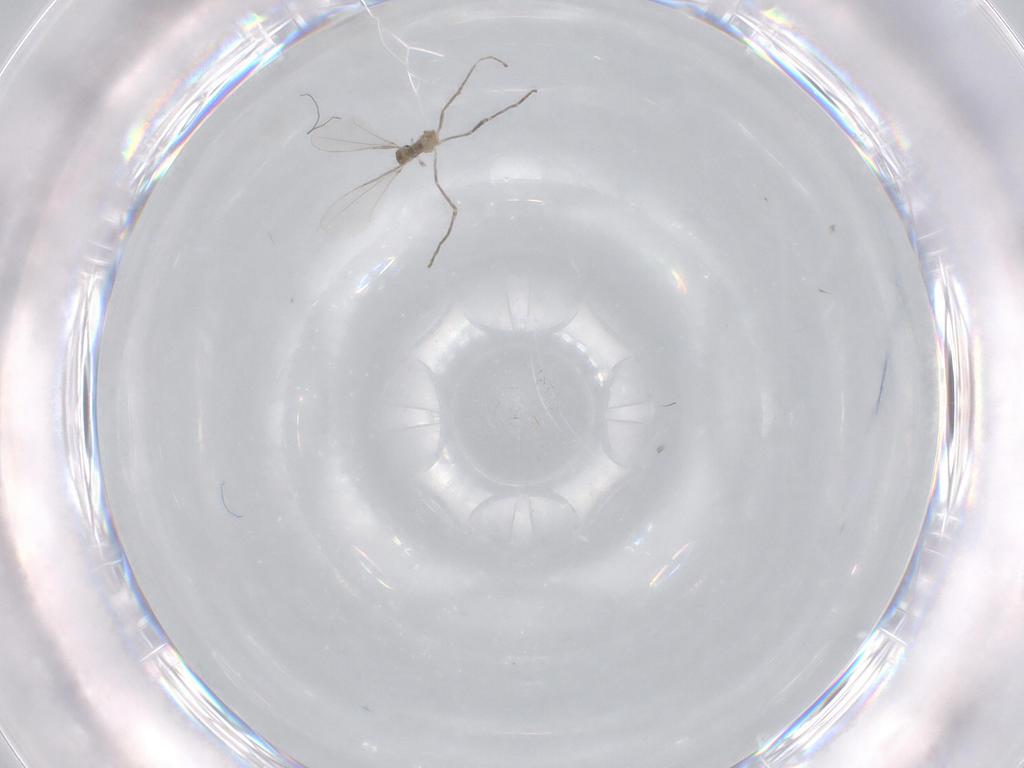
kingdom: Animalia
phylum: Arthropoda
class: Insecta
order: Diptera
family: Cecidomyiidae
